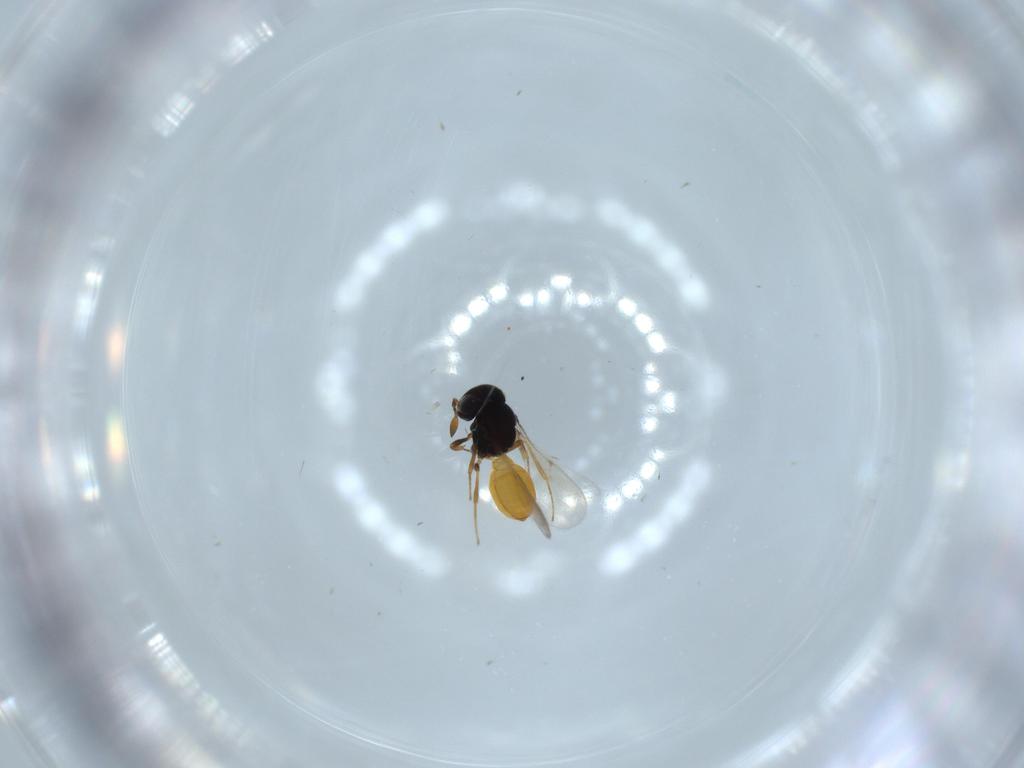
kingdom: Animalia
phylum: Arthropoda
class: Insecta
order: Hymenoptera
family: Scelionidae
